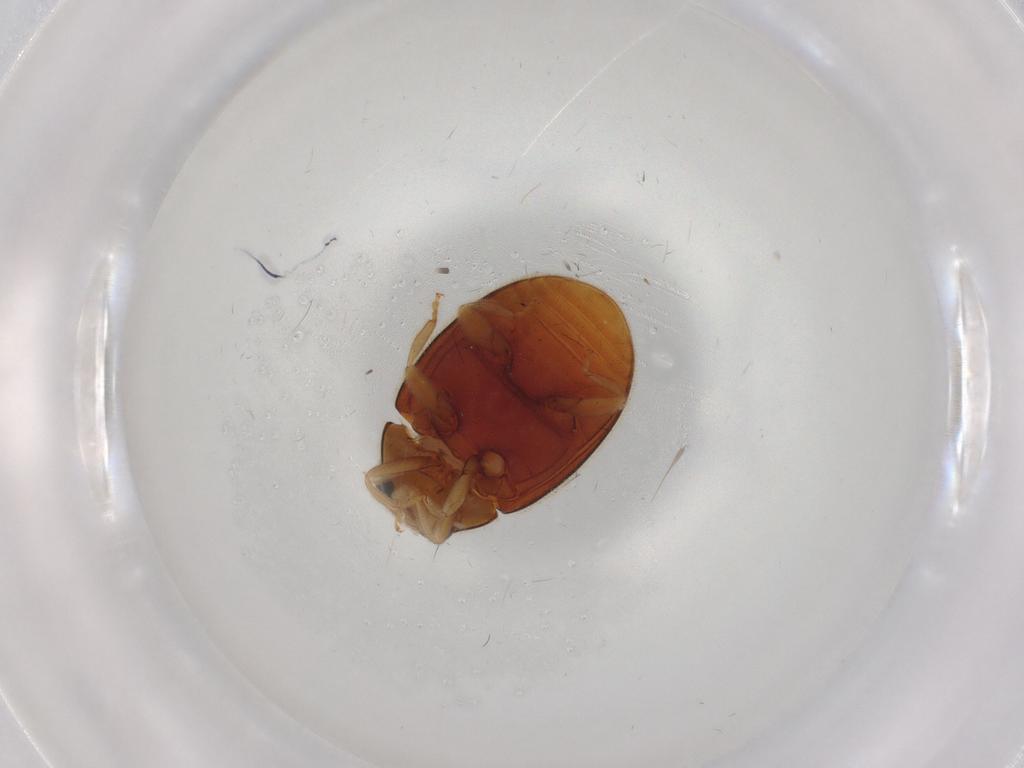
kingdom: Animalia
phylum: Arthropoda
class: Insecta
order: Coleoptera
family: Coccinellidae
